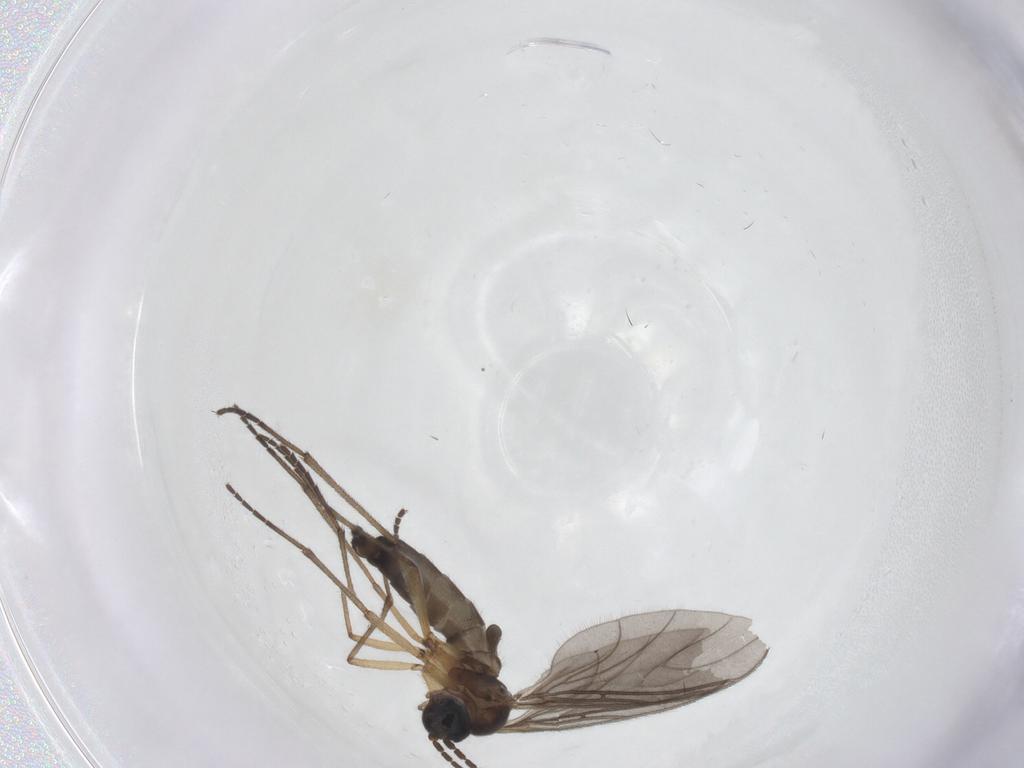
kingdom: Animalia
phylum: Arthropoda
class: Insecta
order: Diptera
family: Sciaridae
